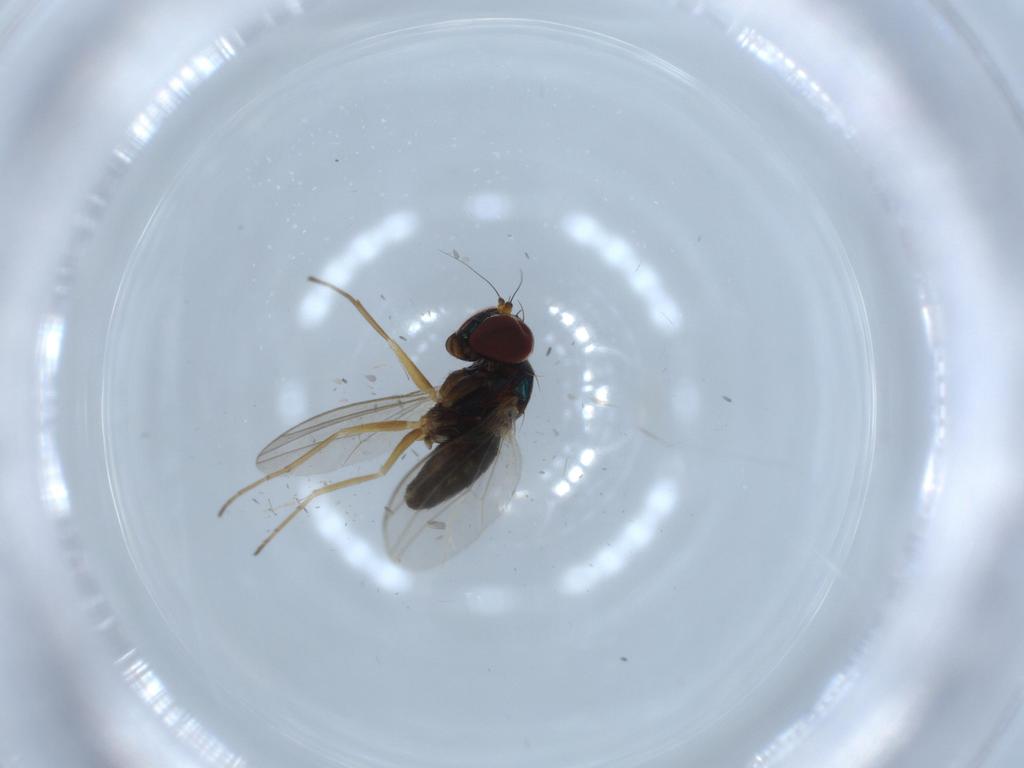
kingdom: Animalia
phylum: Arthropoda
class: Insecta
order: Diptera
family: Dolichopodidae
